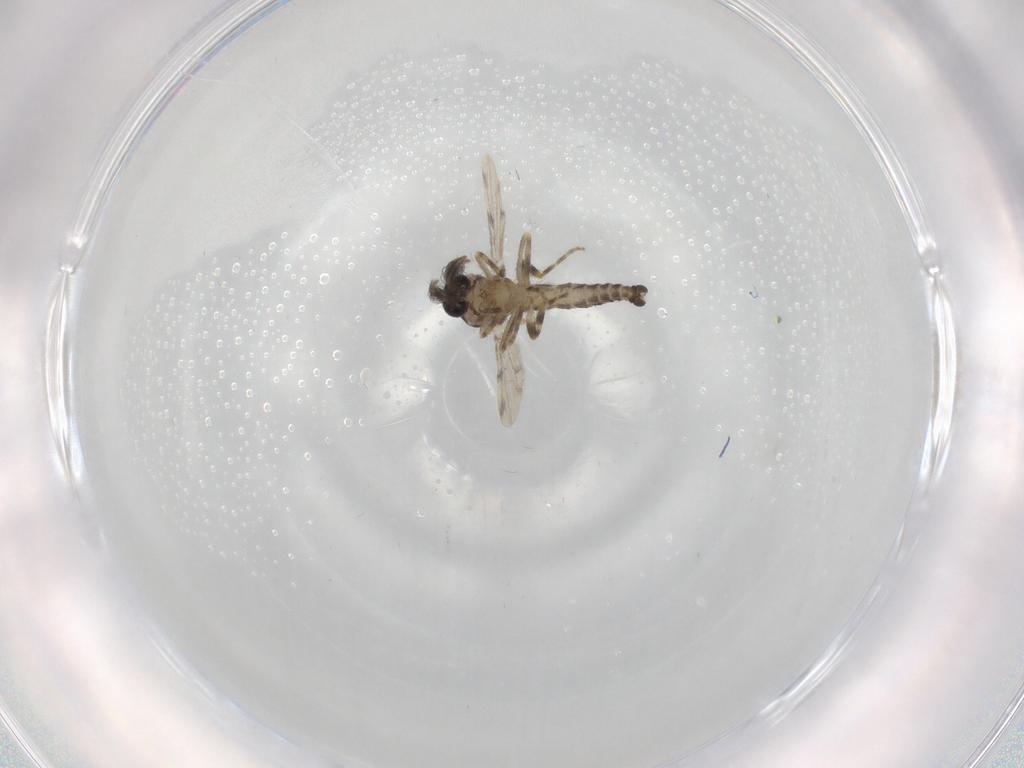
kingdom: Animalia
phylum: Arthropoda
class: Insecta
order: Diptera
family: Ceratopogonidae
